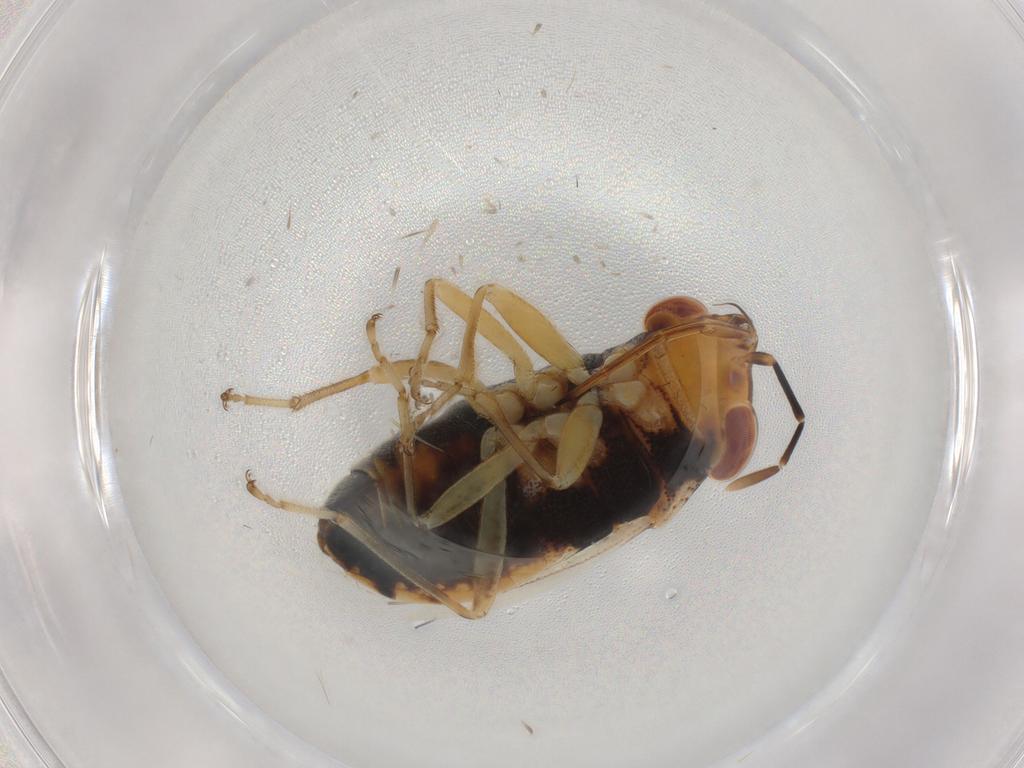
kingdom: Animalia
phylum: Arthropoda
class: Insecta
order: Hemiptera
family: Geocoridae
